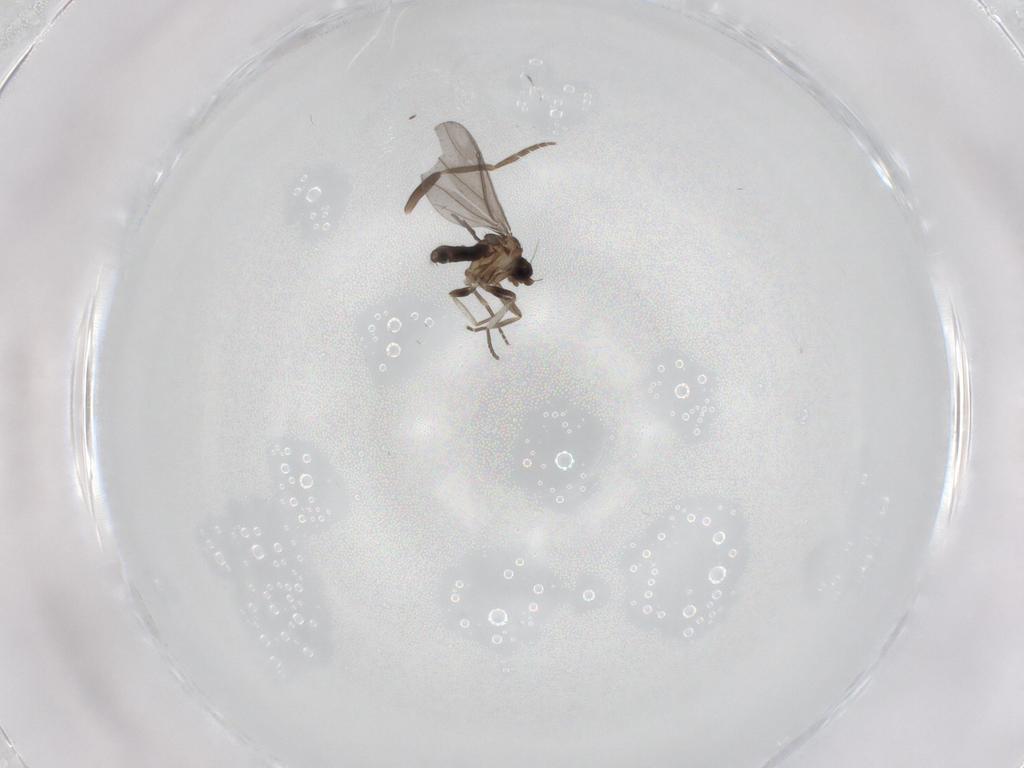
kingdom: Animalia
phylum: Arthropoda
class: Insecta
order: Diptera
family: Phoridae
